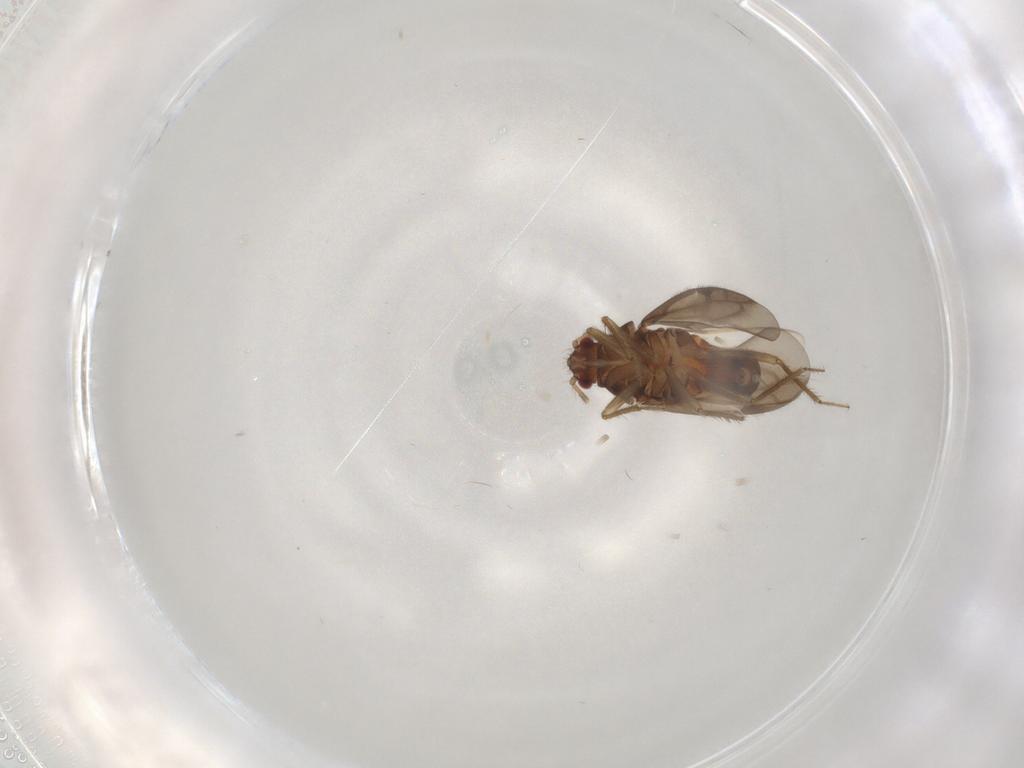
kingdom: Animalia
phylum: Arthropoda
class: Insecta
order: Hemiptera
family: Ceratocombidae
